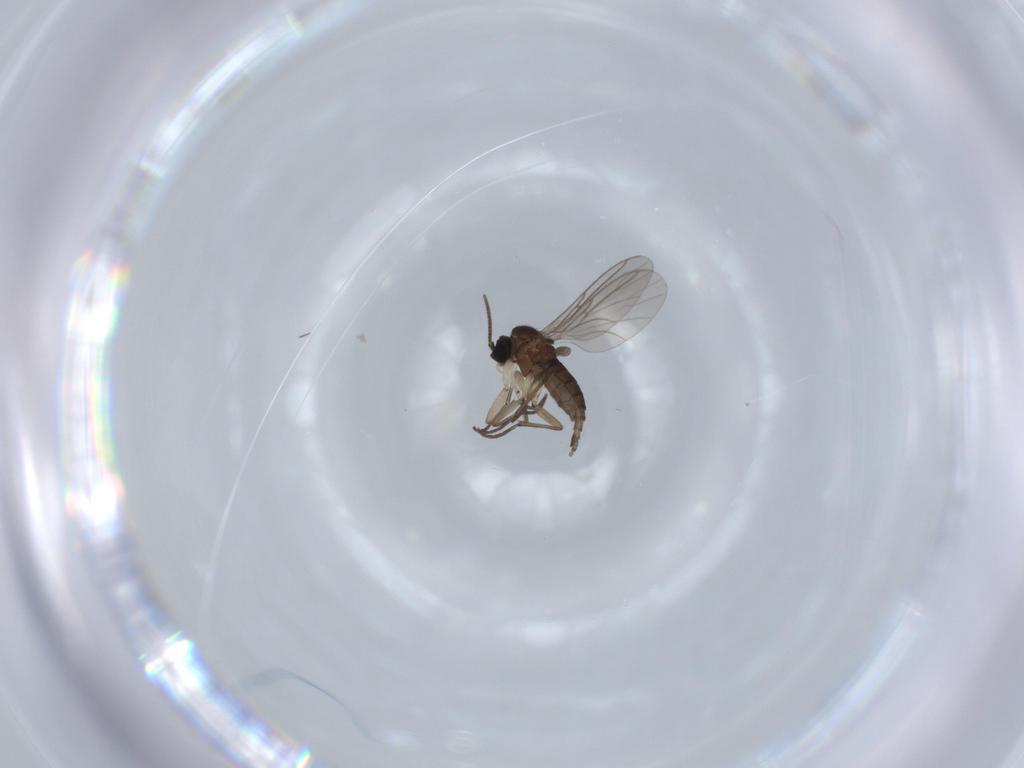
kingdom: Animalia
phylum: Arthropoda
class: Insecta
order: Diptera
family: Sciaridae
